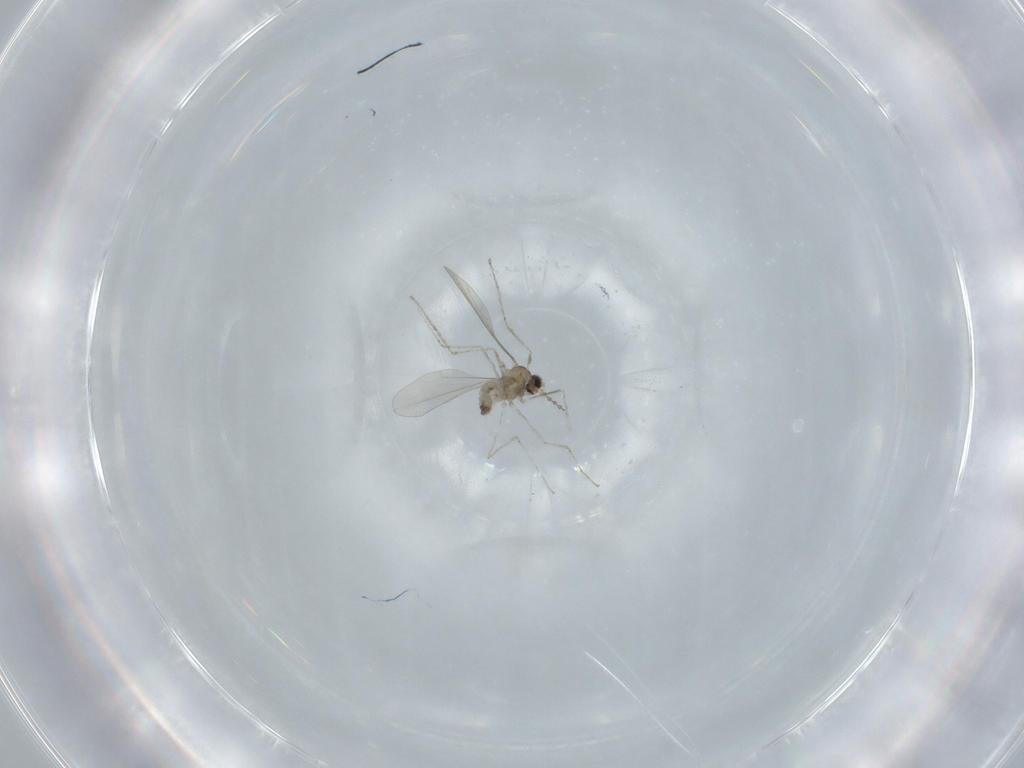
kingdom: Animalia
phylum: Arthropoda
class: Insecta
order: Diptera
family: Cecidomyiidae
